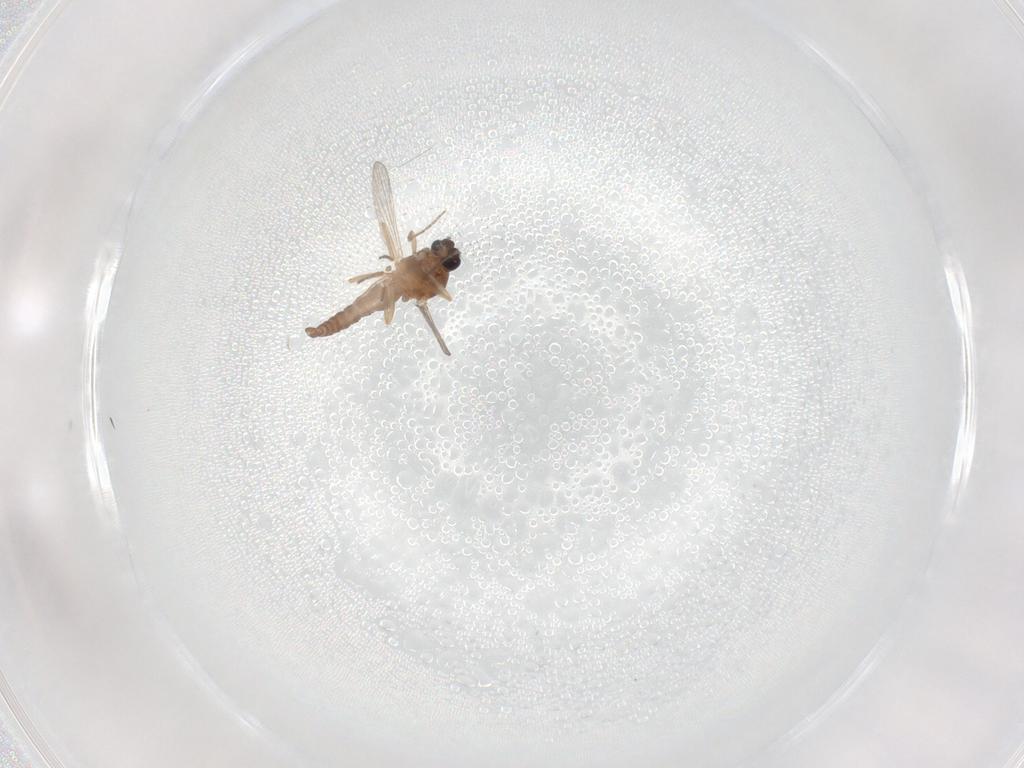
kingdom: Animalia
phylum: Arthropoda
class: Insecta
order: Diptera
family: Ceratopogonidae
